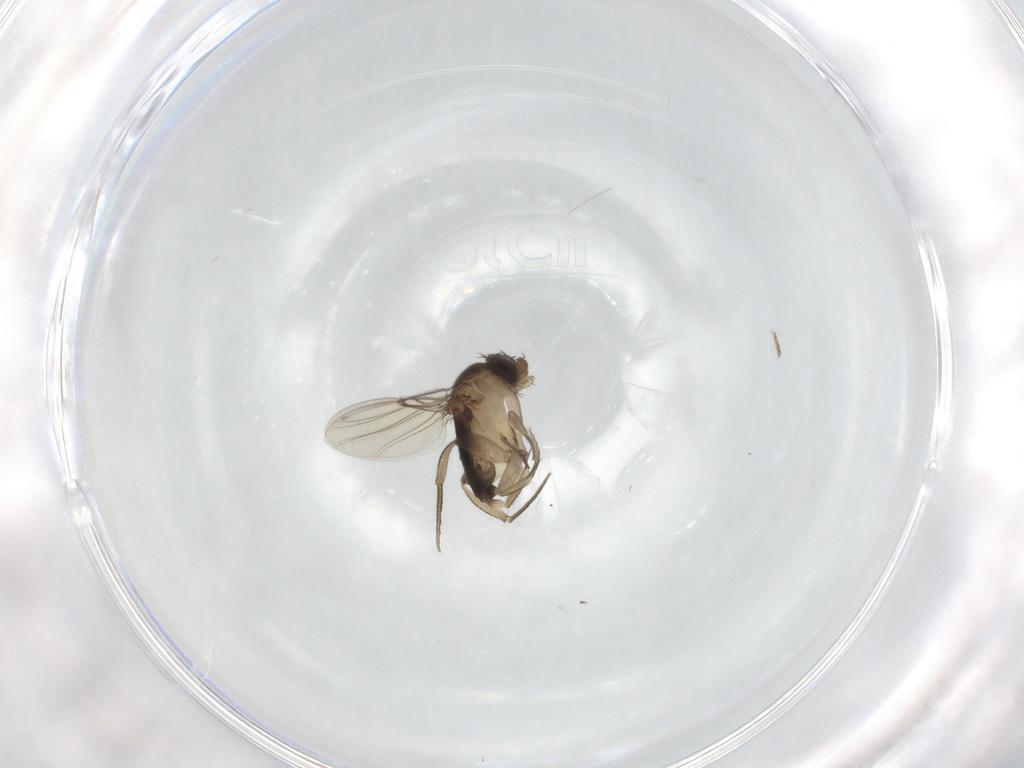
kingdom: Animalia
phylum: Arthropoda
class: Insecta
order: Diptera
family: Phoridae
